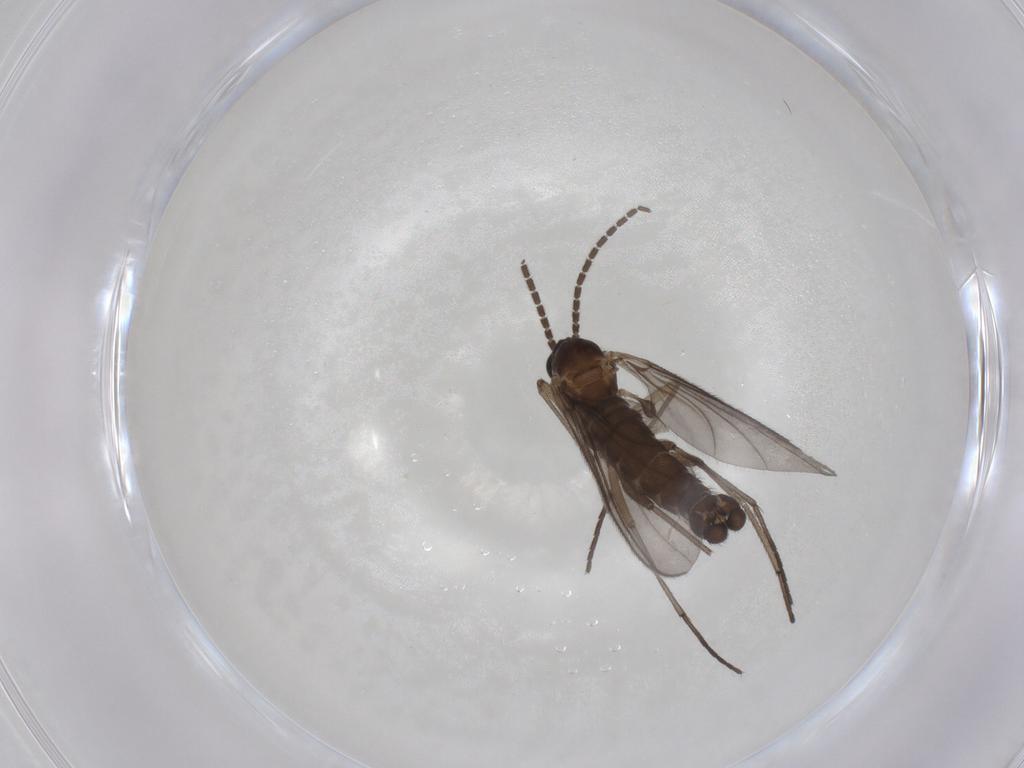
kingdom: Animalia
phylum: Arthropoda
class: Insecta
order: Diptera
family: Sciaridae
